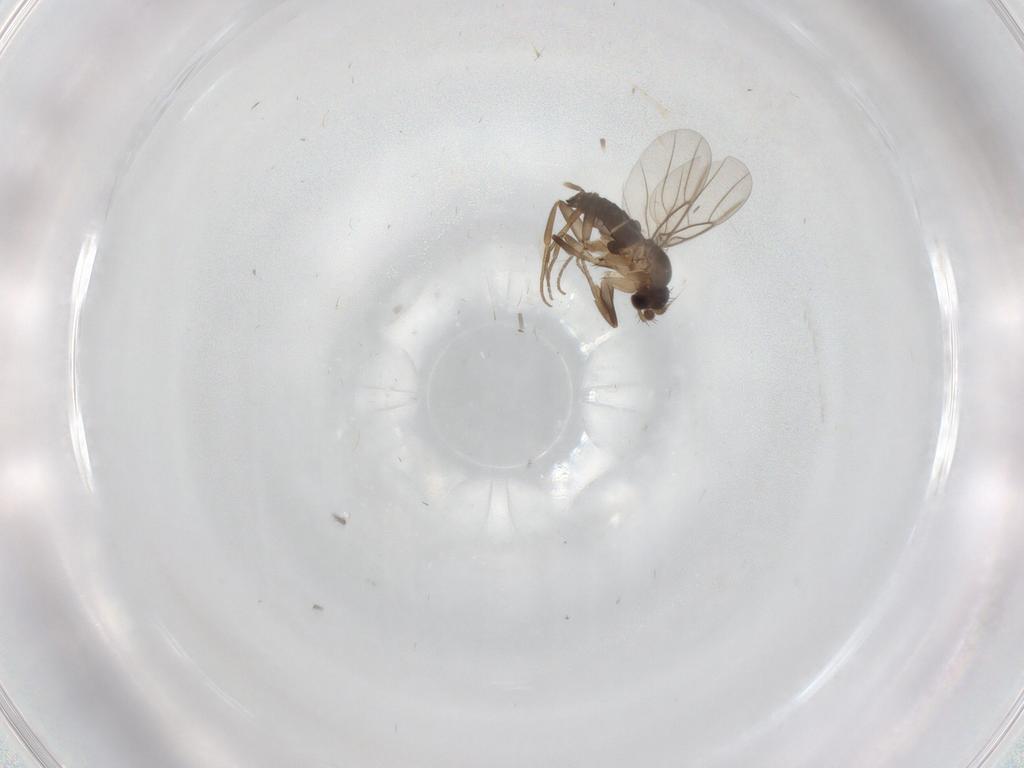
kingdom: Animalia
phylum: Arthropoda
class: Insecta
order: Diptera
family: Phoridae
